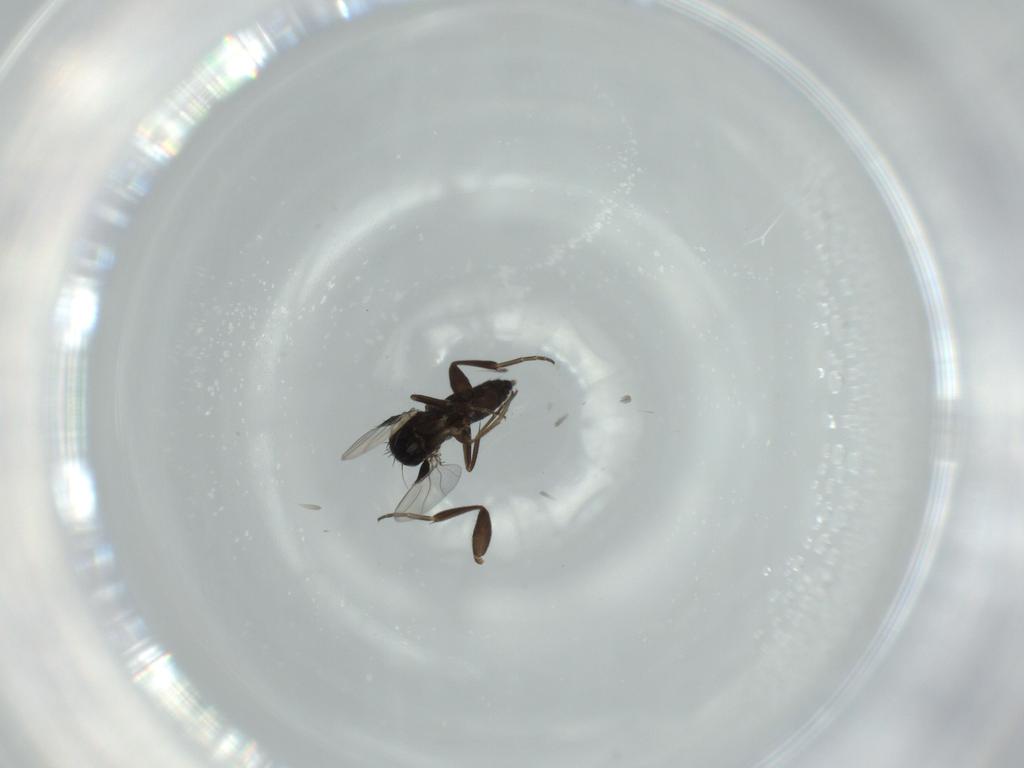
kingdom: Animalia
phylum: Arthropoda
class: Insecta
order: Diptera
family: Phoridae
